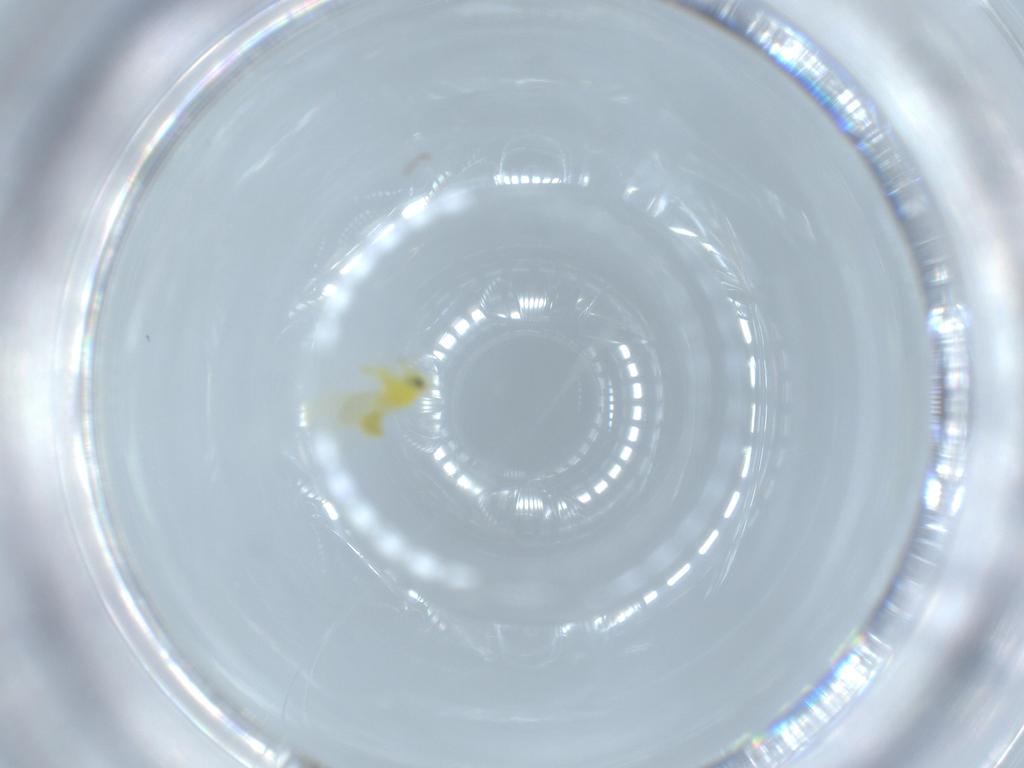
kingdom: Animalia
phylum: Arthropoda
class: Insecta
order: Hemiptera
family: Aleyrodidae
